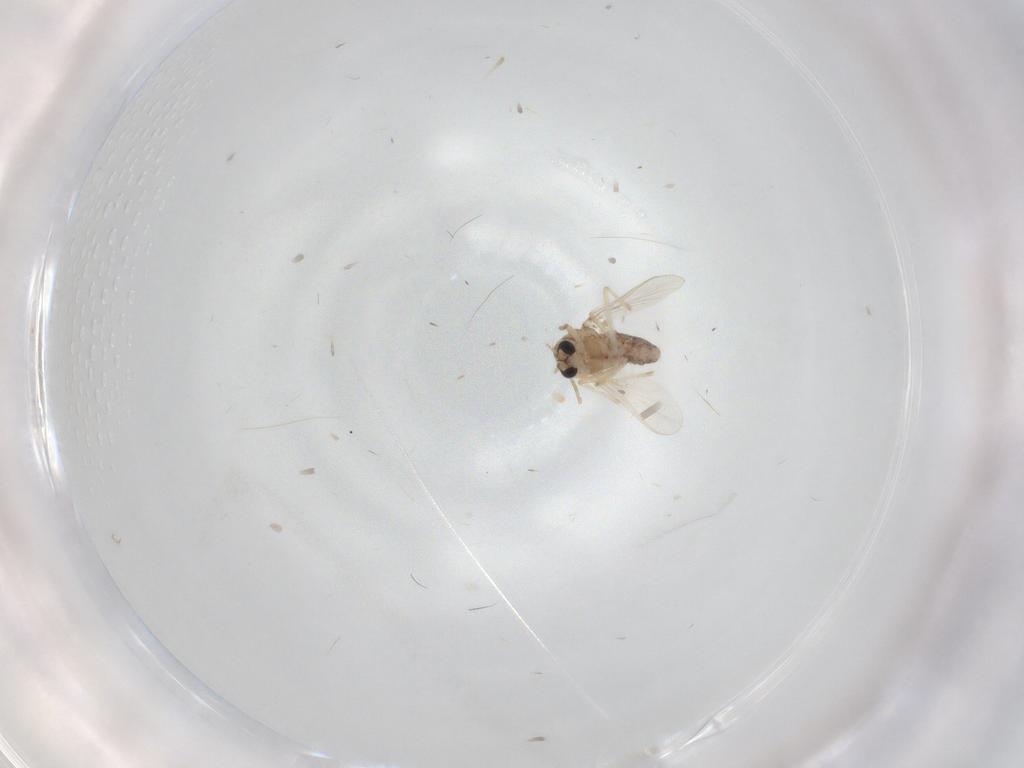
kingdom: Animalia
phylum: Arthropoda
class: Insecta
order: Diptera
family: Chironomidae
